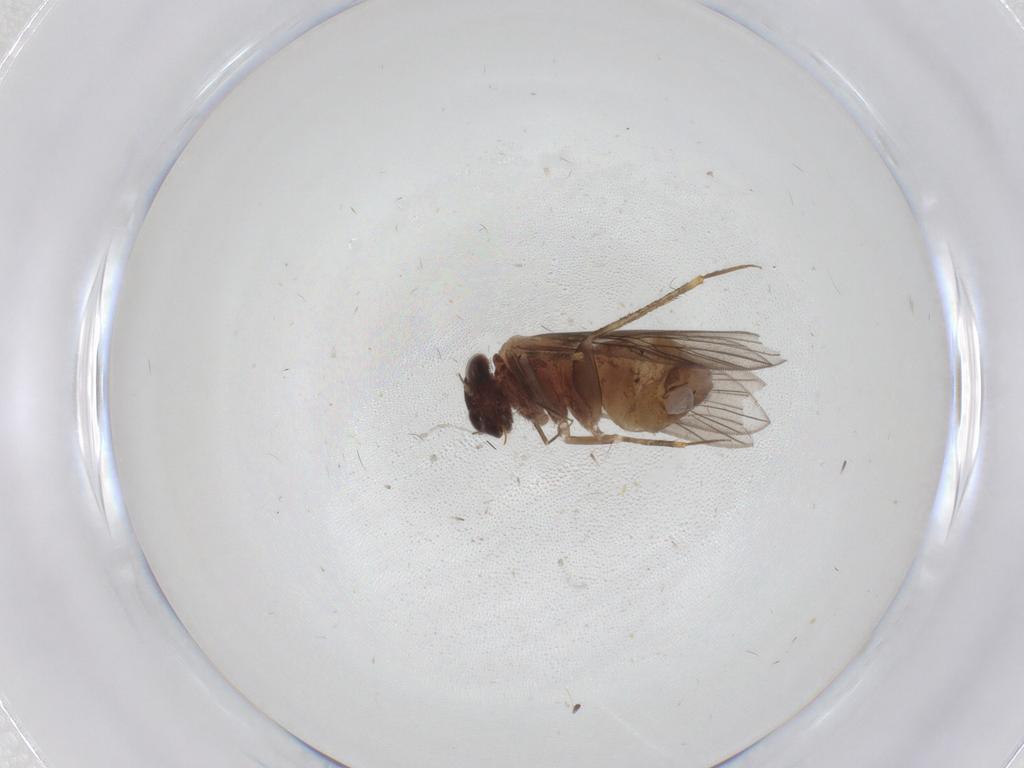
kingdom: Animalia
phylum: Arthropoda
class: Insecta
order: Psocodea
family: Lepidopsocidae
